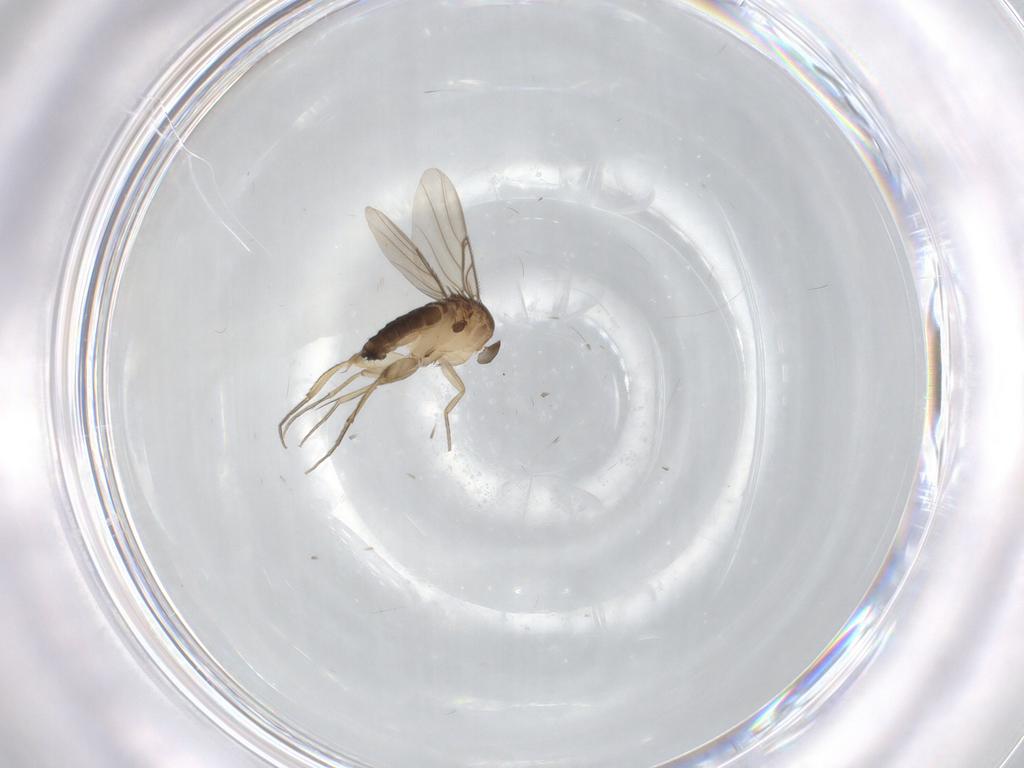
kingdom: Animalia
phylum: Arthropoda
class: Insecta
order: Diptera
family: Phoridae
